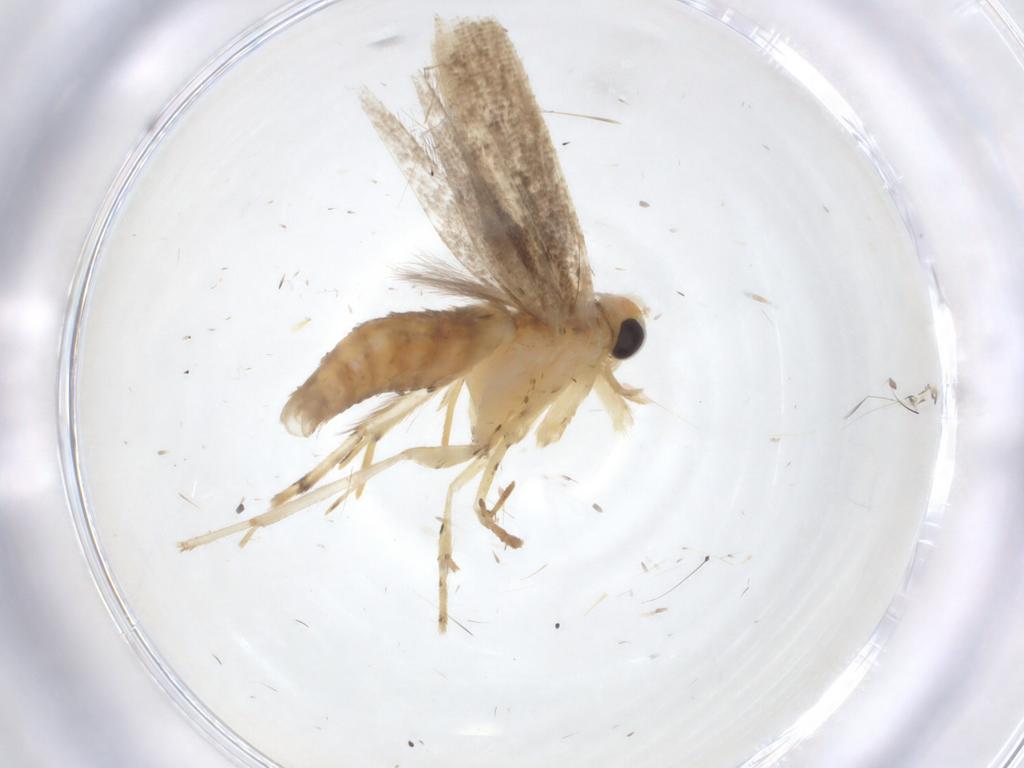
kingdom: Animalia
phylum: Arthropoda
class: Insecta
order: Lepidoptera
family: Argyresthiidae
